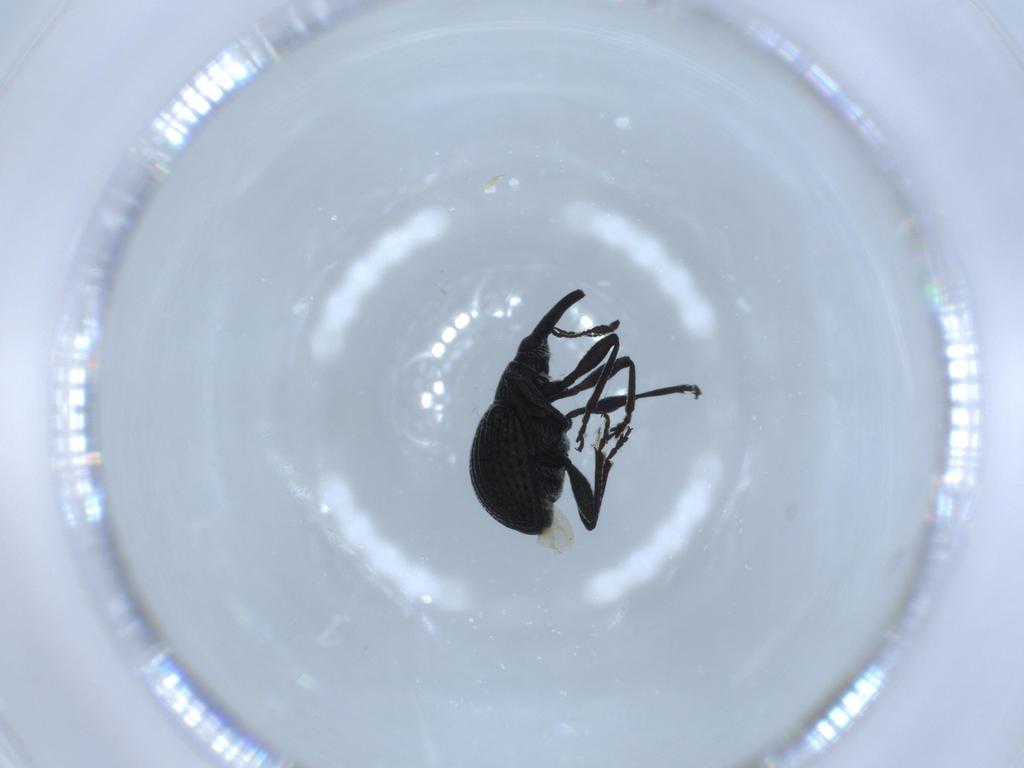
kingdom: Animalia
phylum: Arthropoda
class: Insecta
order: Coleoptera
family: Brentidae
